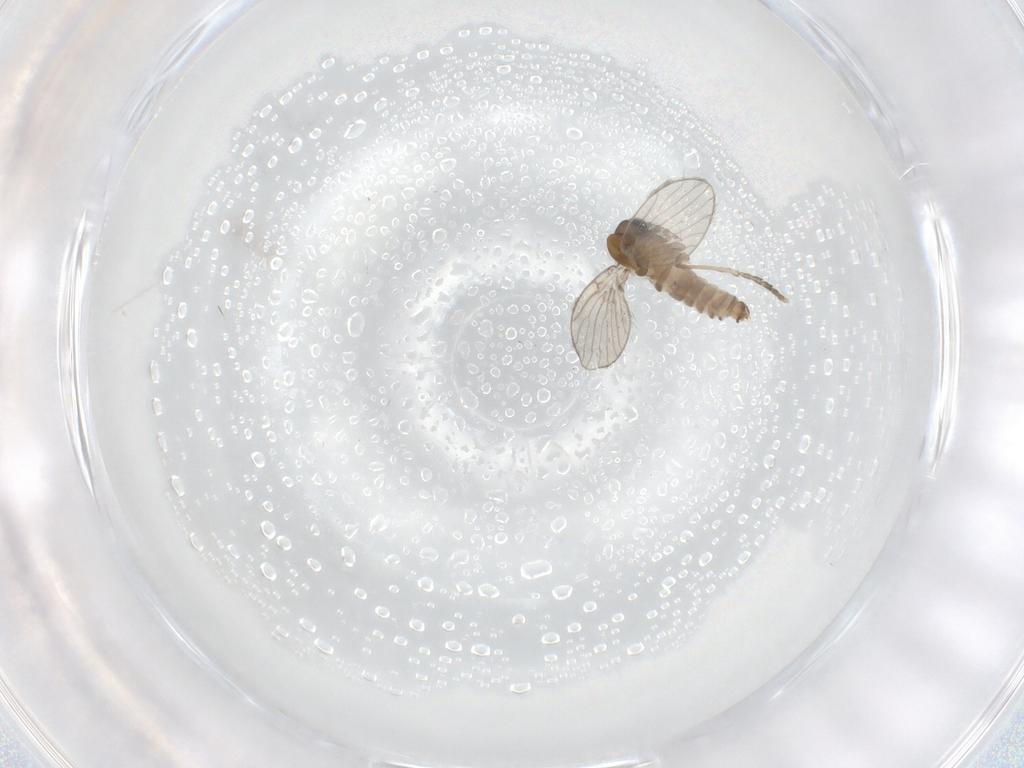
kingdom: Animalia
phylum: Arthropoda
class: Insecta
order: Diptera
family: Psychodidae
